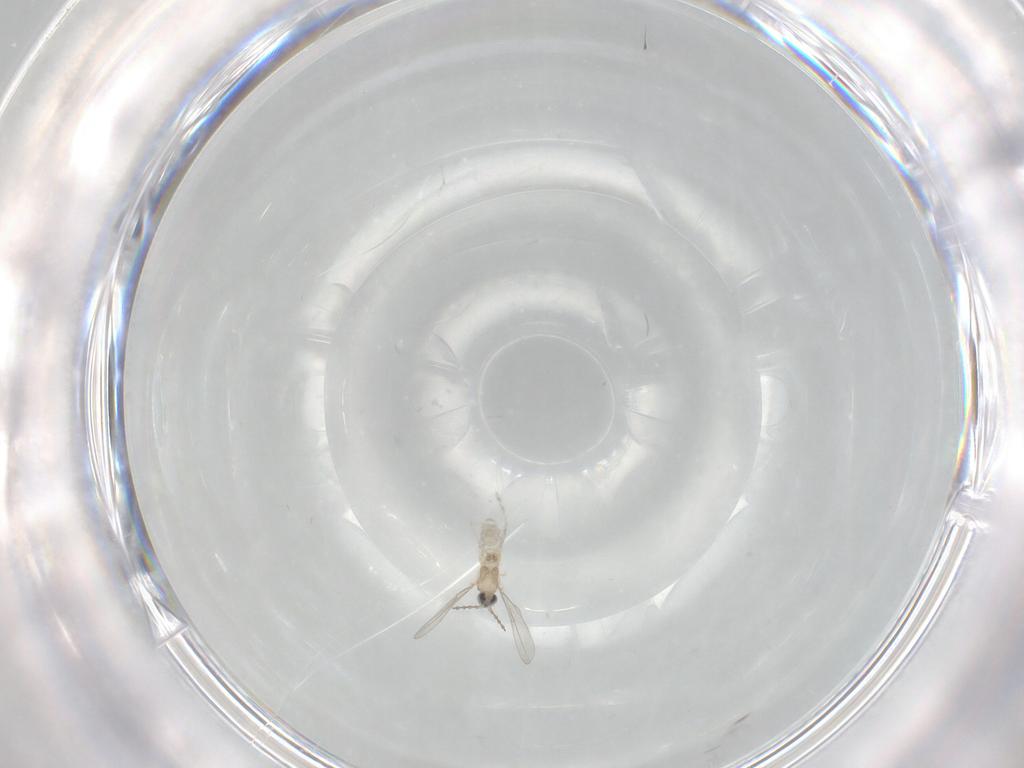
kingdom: Animalia
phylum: Arthropoda
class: Insecta
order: Diptera
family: Cecidomyiidae
